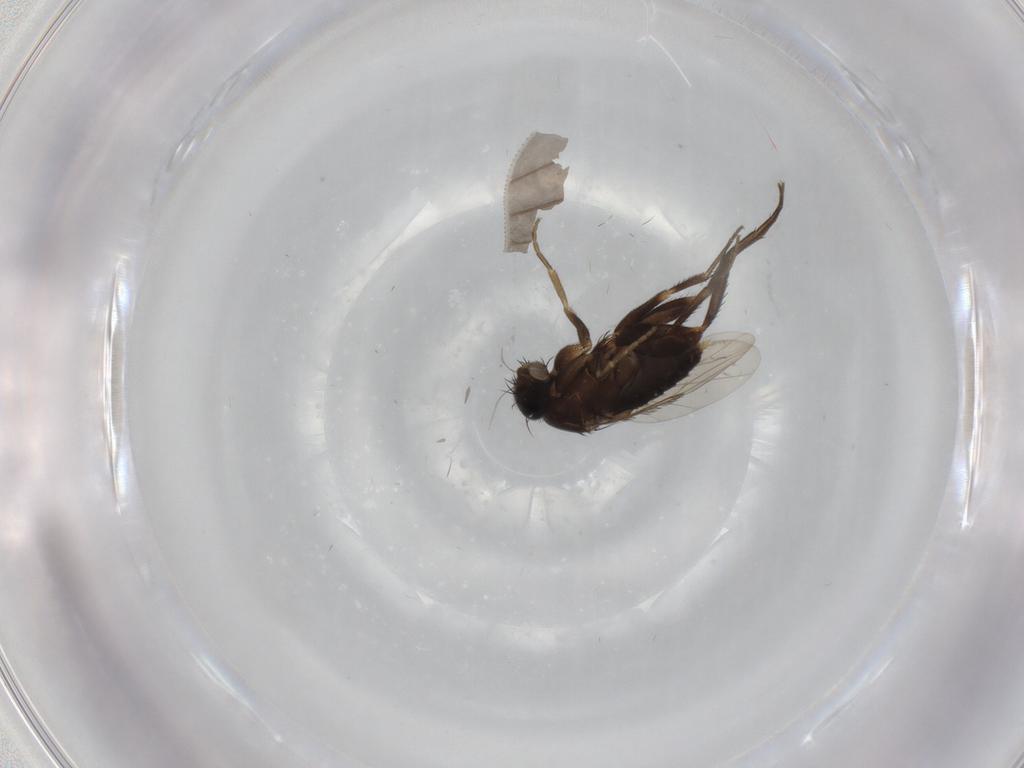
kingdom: Animalia
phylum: Arthropoda
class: Insecta
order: Diptera
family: Phoridae
